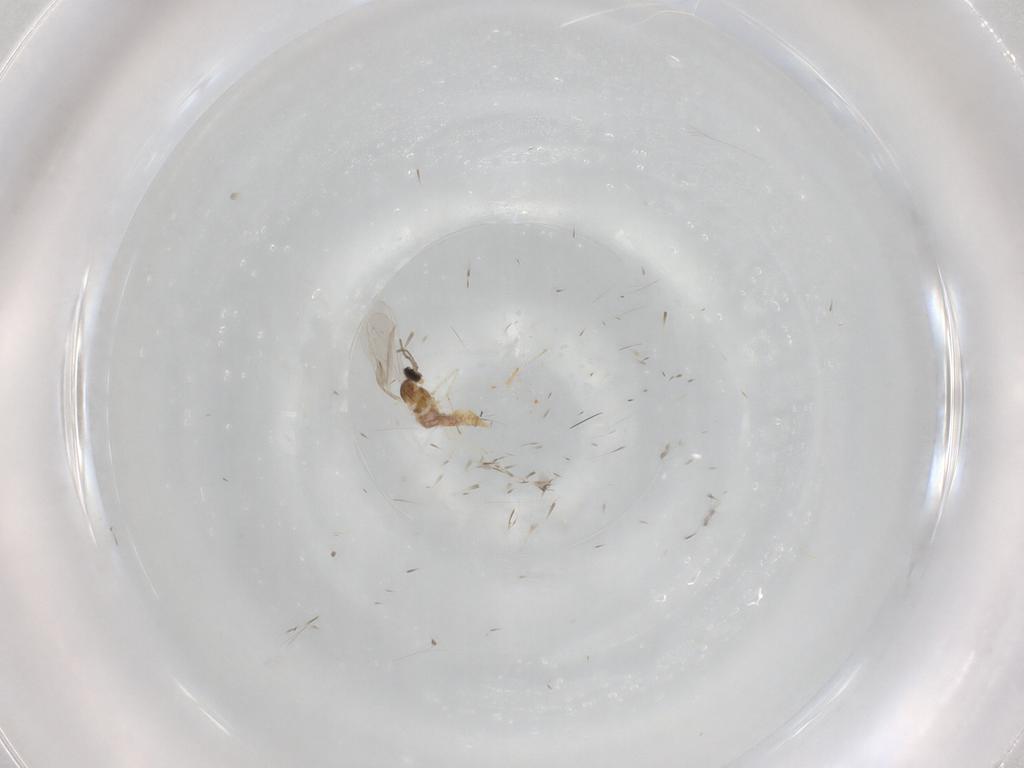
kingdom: Animalia
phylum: Arthropoda
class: Insecta
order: Diptera
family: Cecidomyiidae
